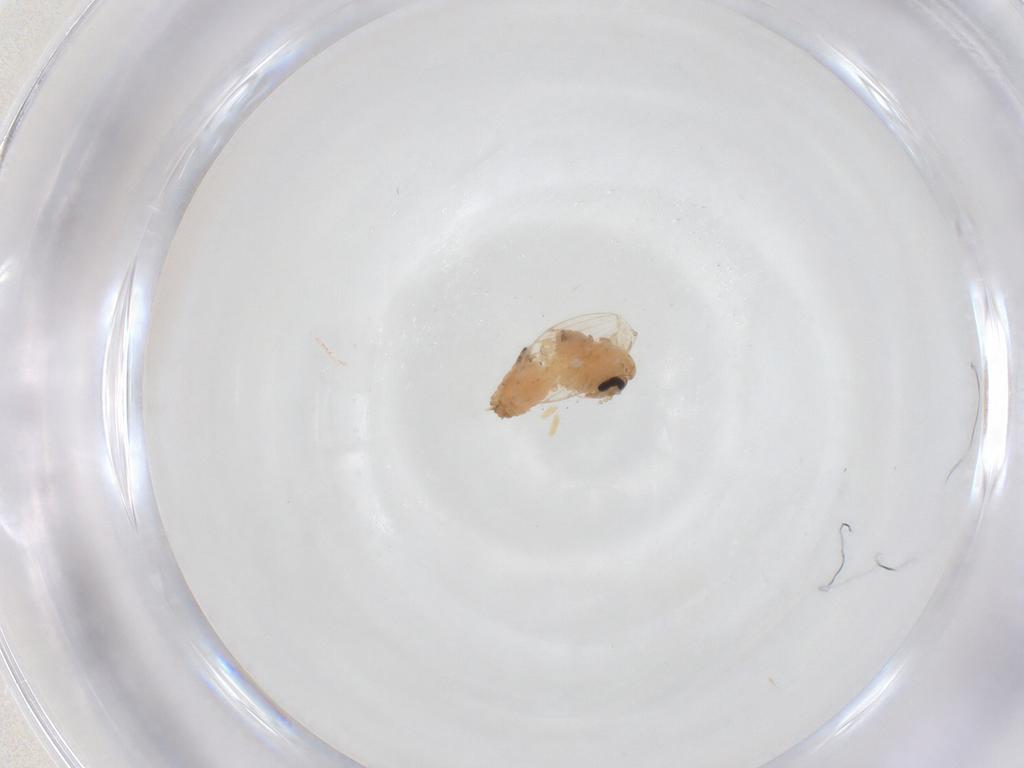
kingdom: Animalia
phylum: Arthropoda
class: Insecta
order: Diptera
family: Psychodidae
